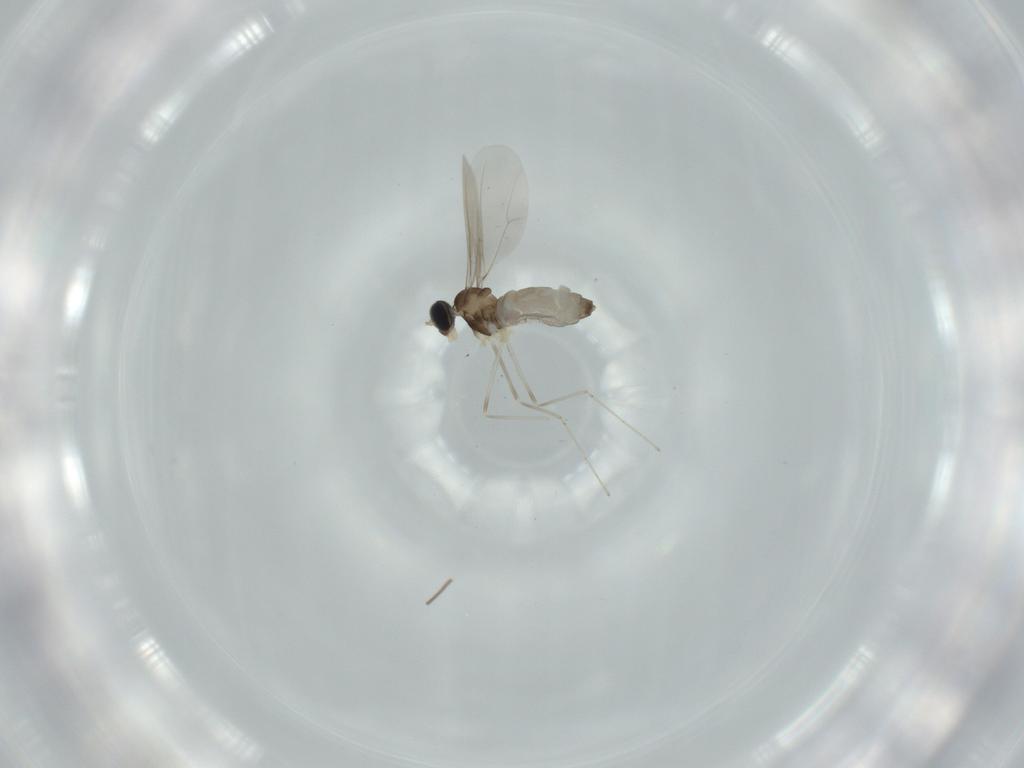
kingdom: Animalia
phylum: Arthropoda
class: Insecta
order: Diptera
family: Cecidomyiidae
